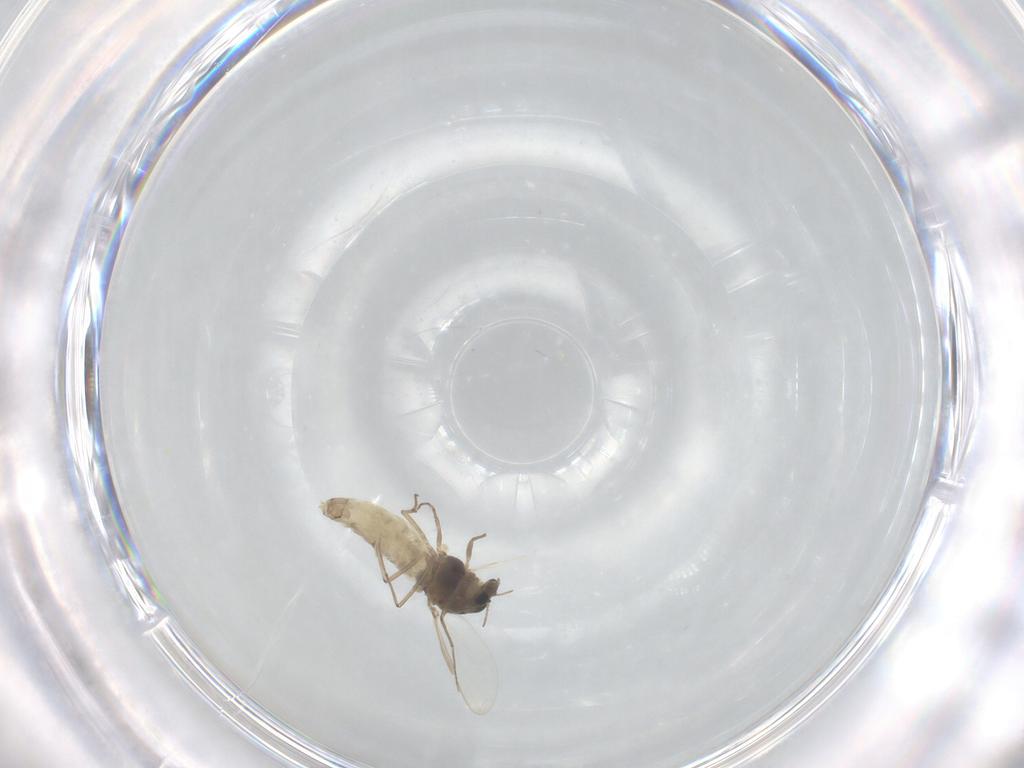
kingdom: Animalia
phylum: Arthropoda
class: Insecta
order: Diptera
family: Chironomidae
